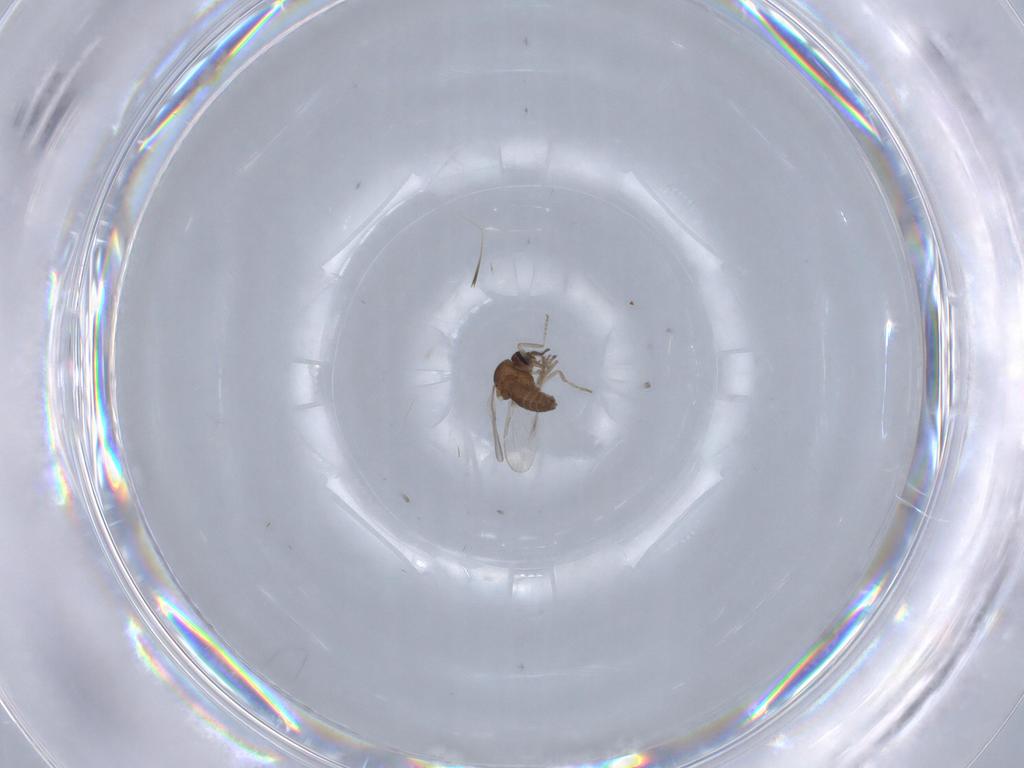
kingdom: Animalia
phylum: Arthropoda
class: Insecta
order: Diptera
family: Ceratopogonidae
